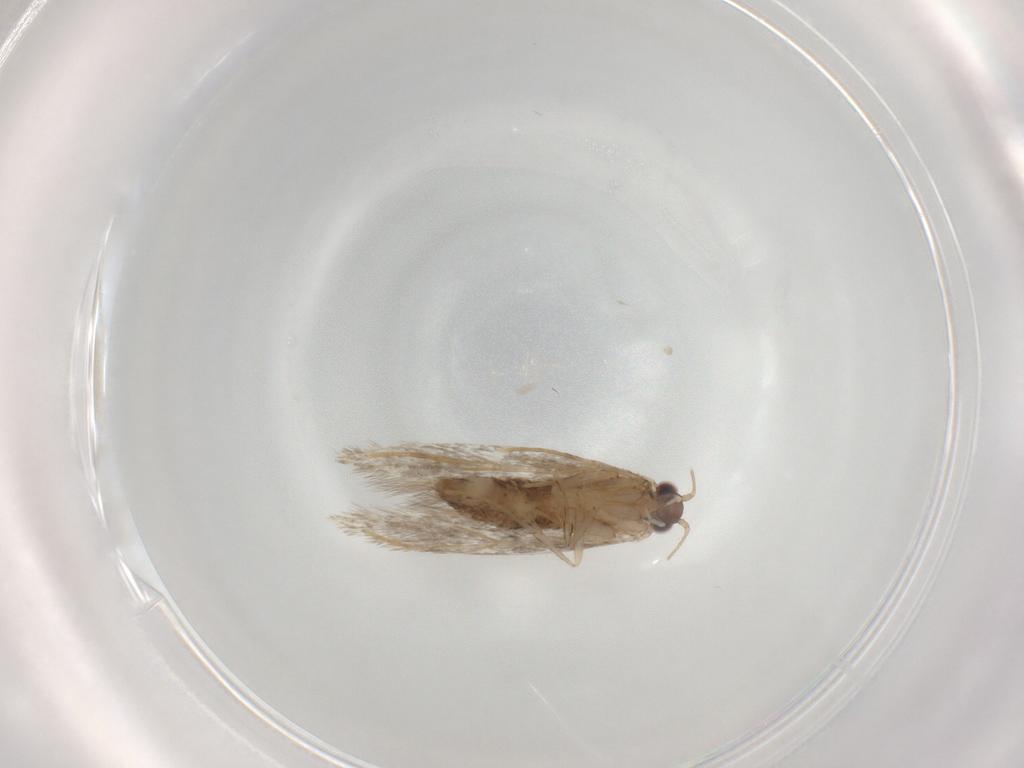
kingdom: Animalia
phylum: Arthropoda
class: Insecta
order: Lepidoptera
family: Tineidae
